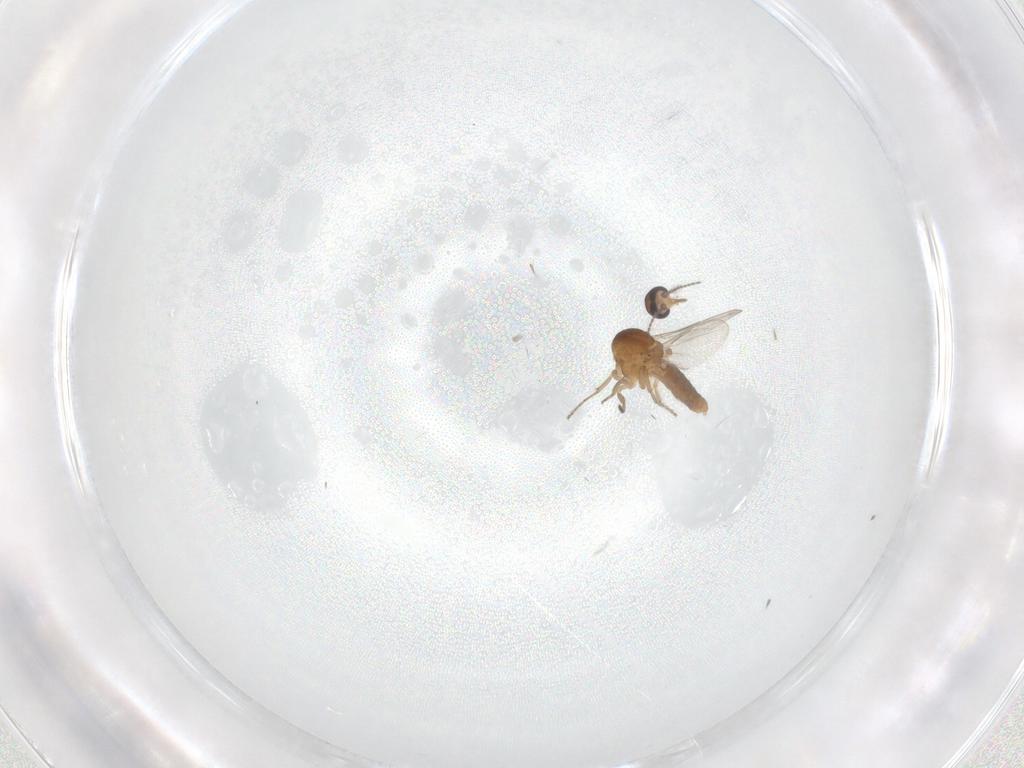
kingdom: Animalia
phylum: Arthropoda
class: Insecta
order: Diptera
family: Ceratopogonidae
